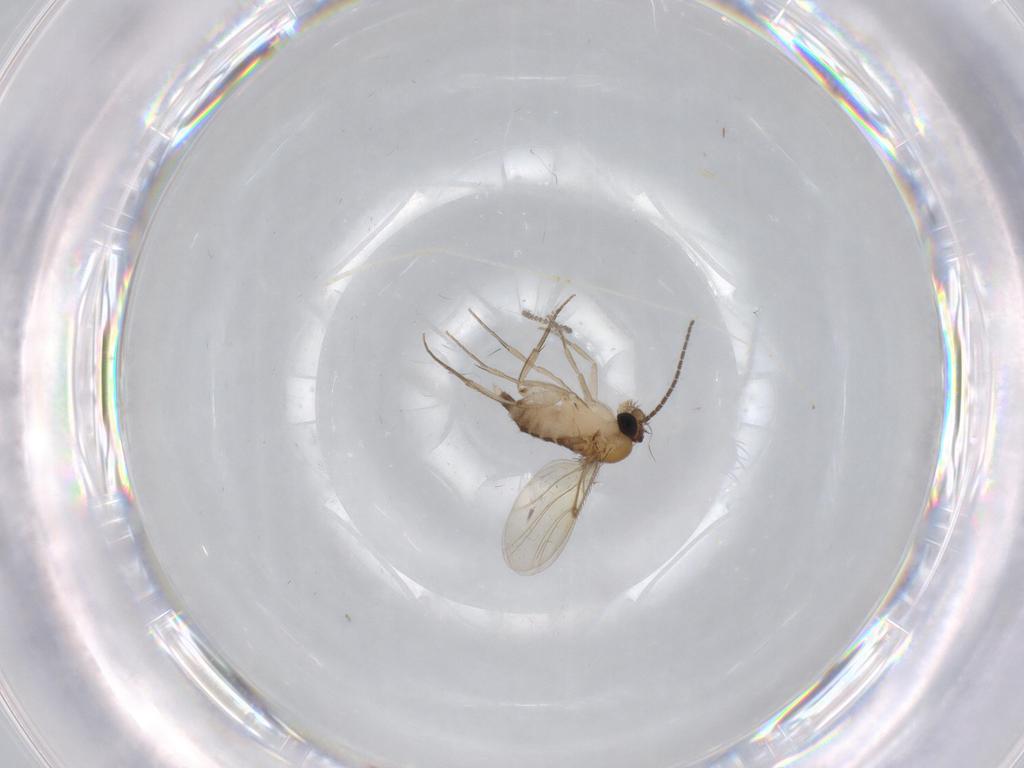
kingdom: Animalia
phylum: Arthropoda
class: Insecta
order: Diptera
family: Phoridae
